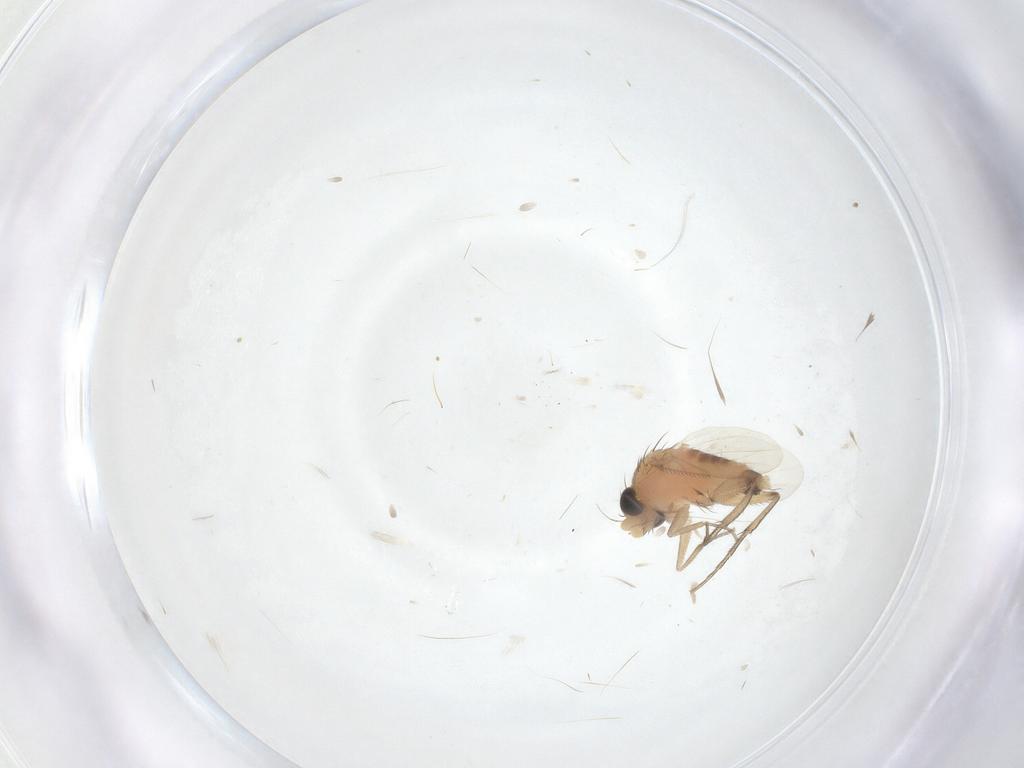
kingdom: Animalia
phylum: Arthropoda
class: Insecta
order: Diptera
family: Phoridae
